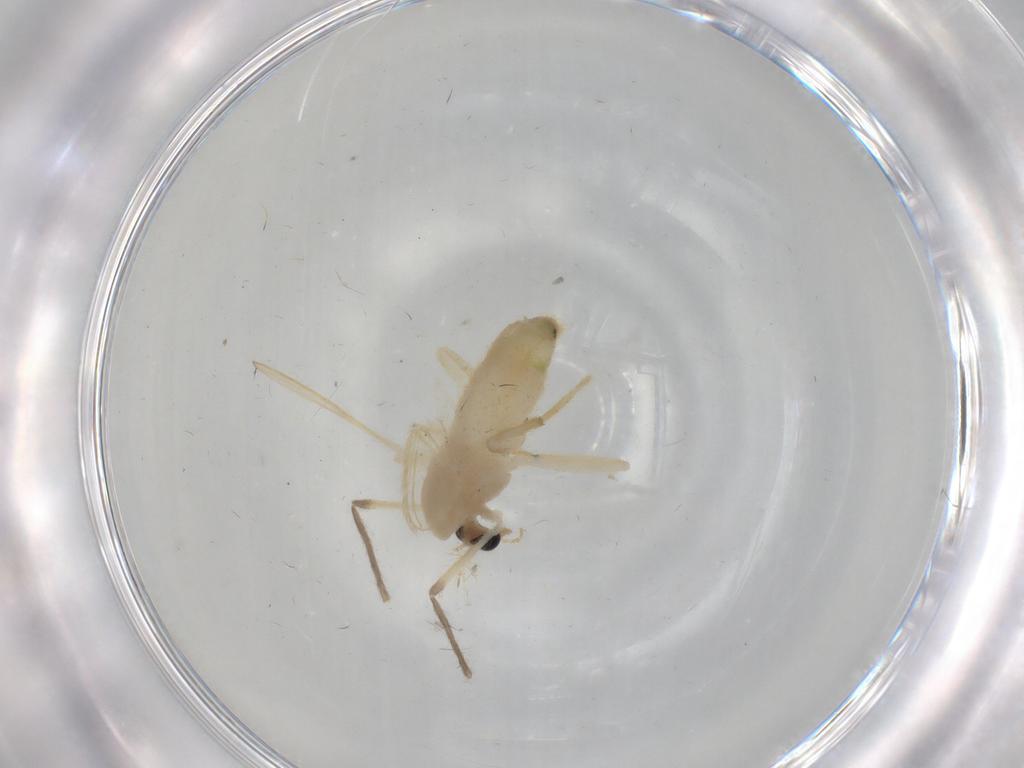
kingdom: Animalia
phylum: Arthropoda
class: Insecta
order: Diptera
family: Chironomidae
